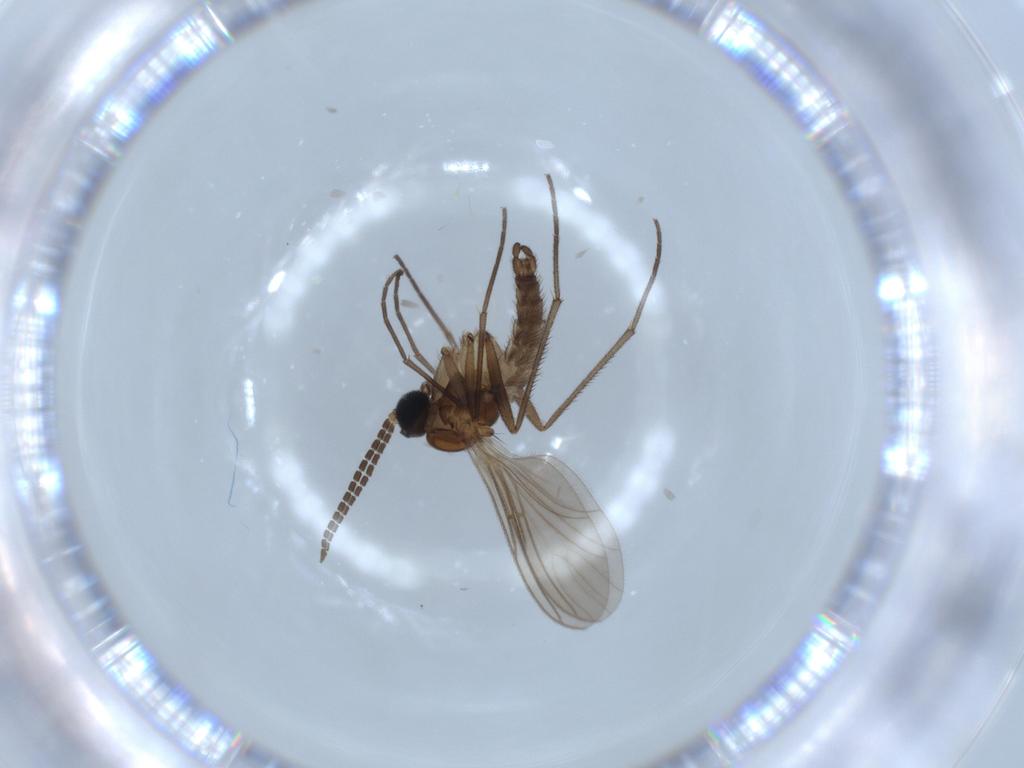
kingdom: Animalia
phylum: Arthropoda
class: Insecta
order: Diptera
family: Sciaridae
